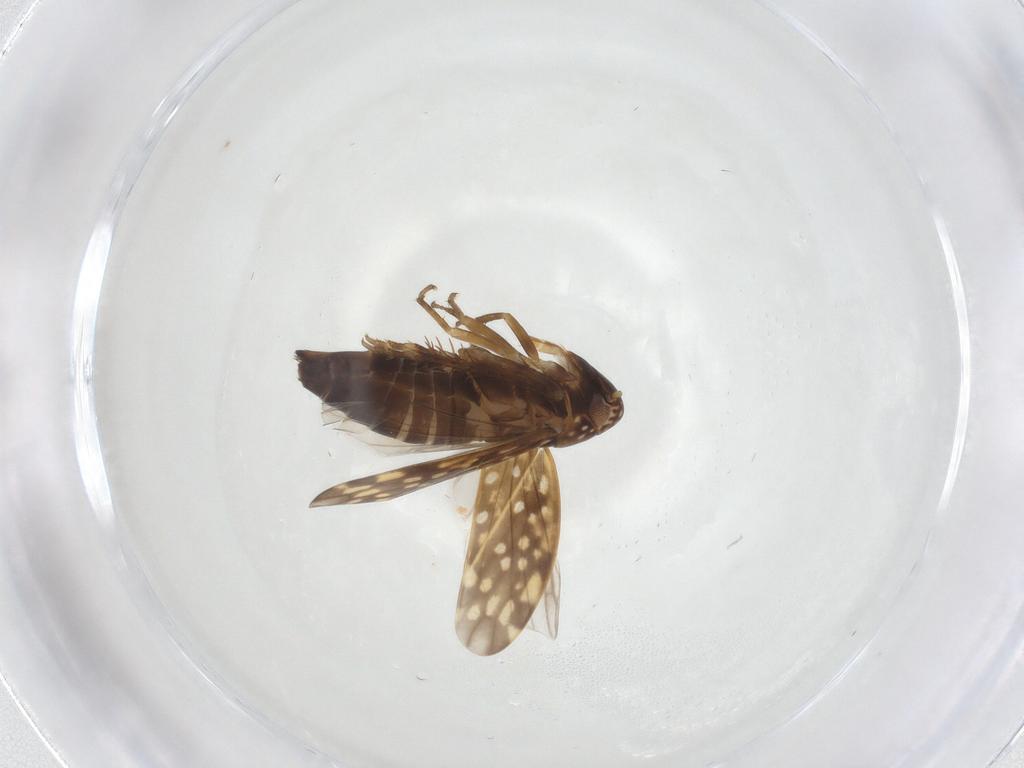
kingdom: Animalia
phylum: Arthropoda
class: Insecta
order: Hemiptera
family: Cicadellidae
